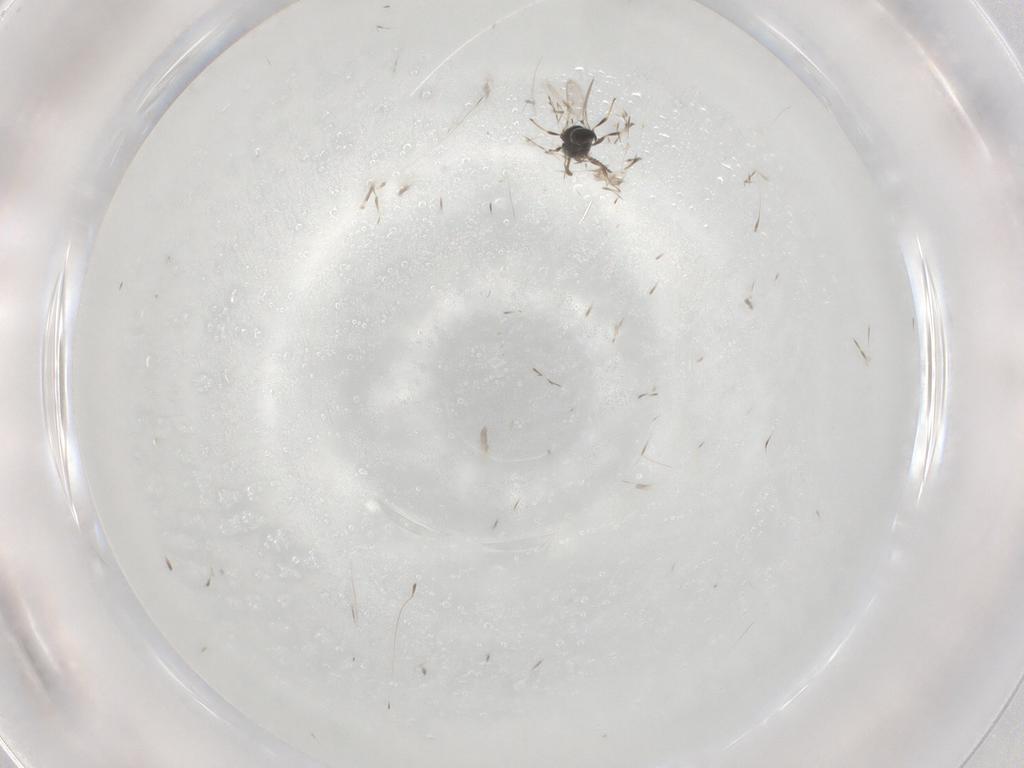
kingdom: Animalia
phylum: Arthropoda
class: Insecta
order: Hymenoptera
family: Scelionidae
